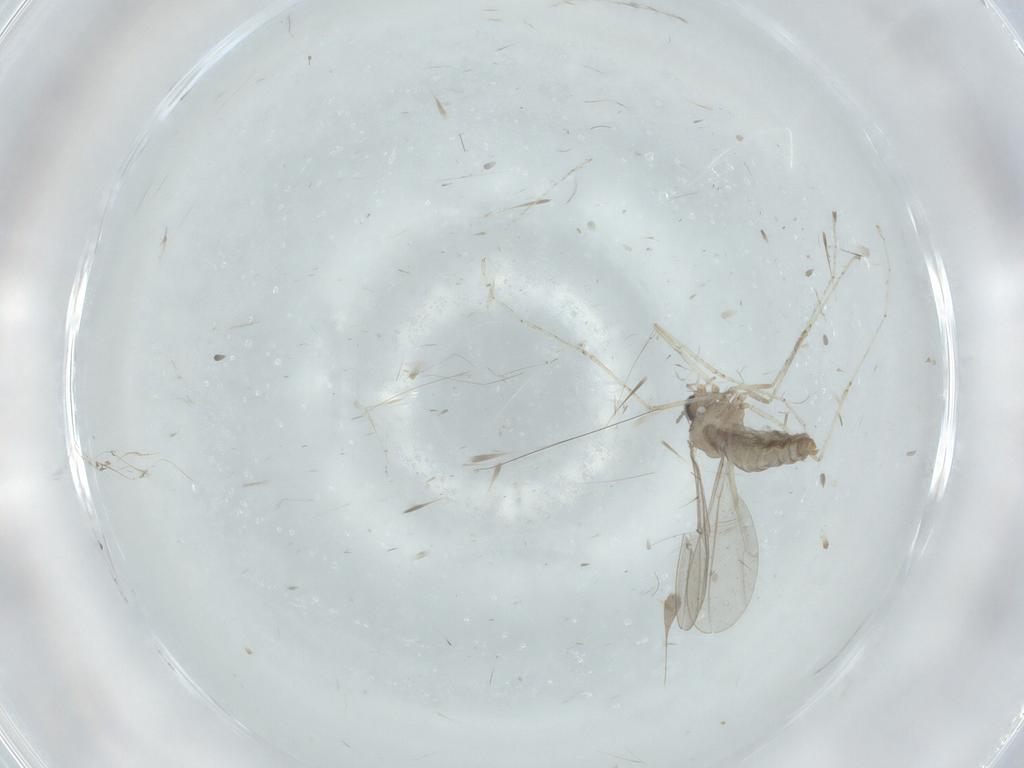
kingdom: Animalia
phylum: Arthropoda
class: Insecta
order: Diptera
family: Cecidomyiidae
